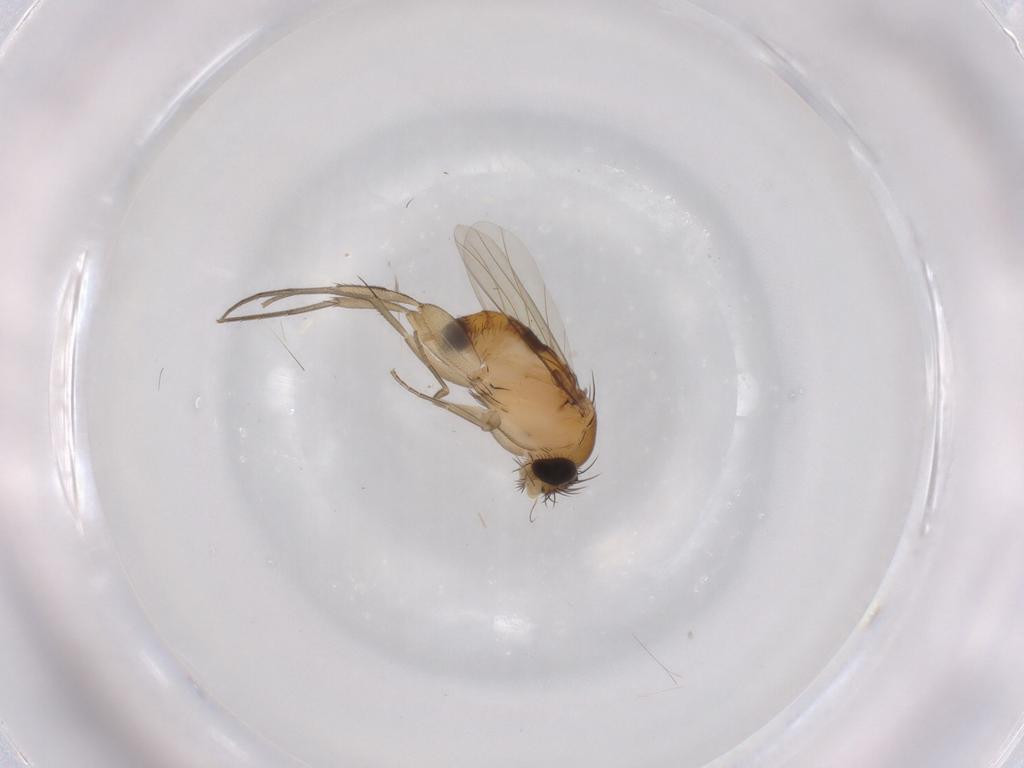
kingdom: Animalia
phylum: Arthropoda
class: Insecta
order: Diptera
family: Phoridae
